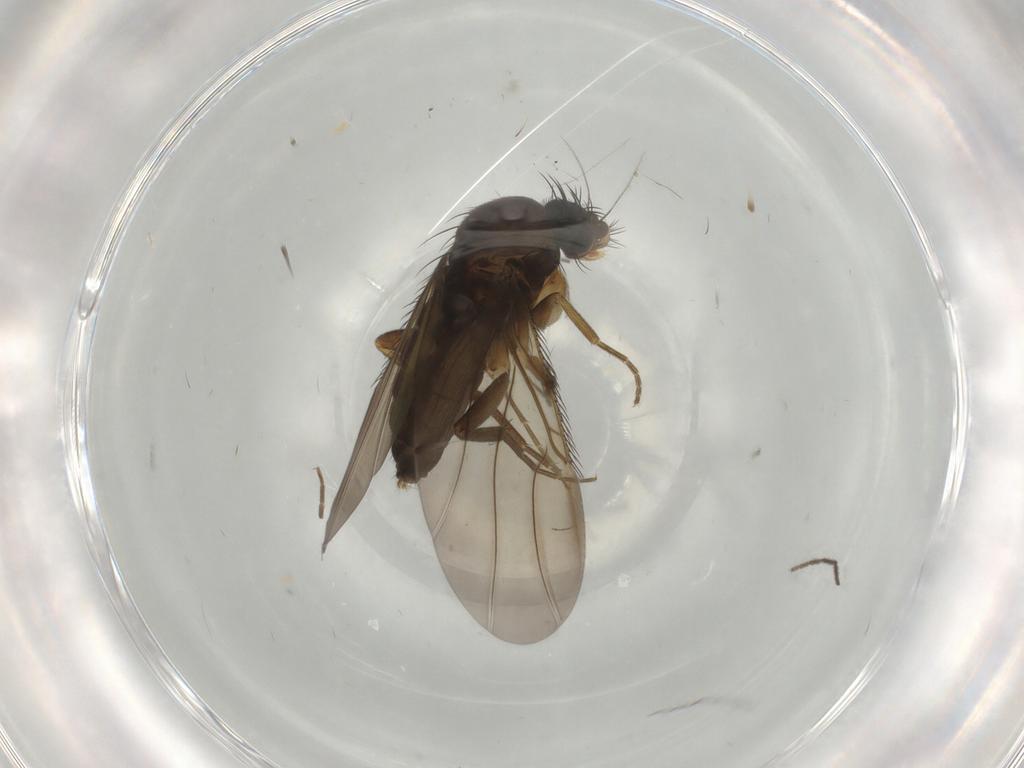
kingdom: Animalia
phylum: Arthropoda
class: Insecta
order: Diptera
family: Phoridae
